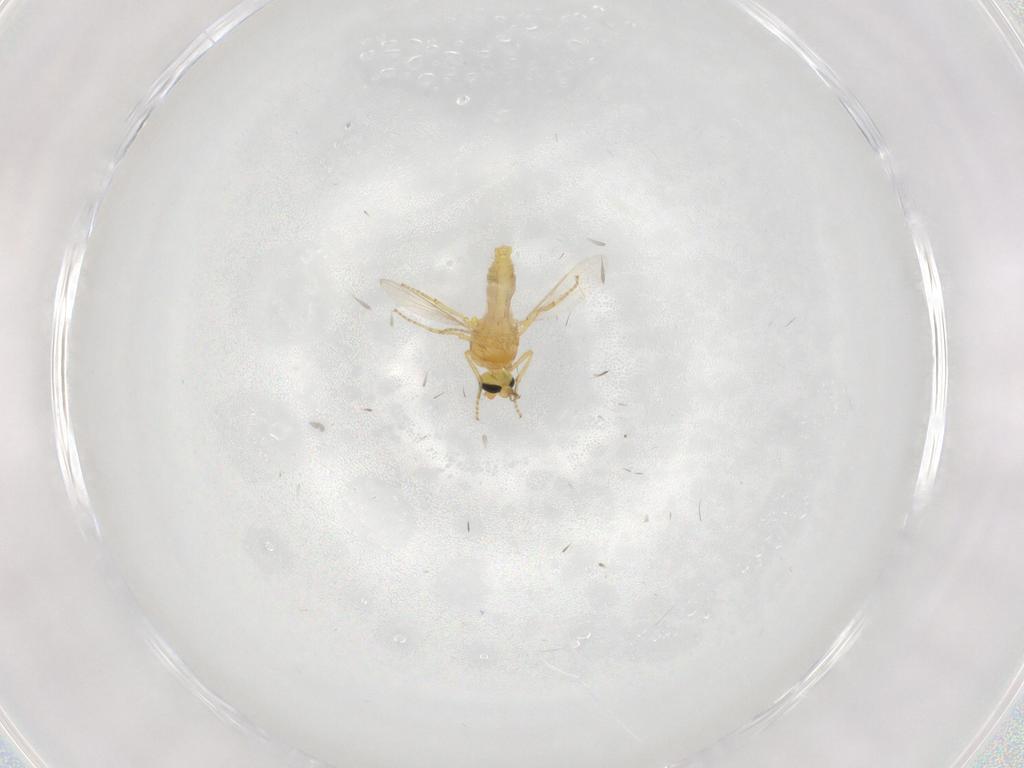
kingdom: Animalia
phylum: Arthropoda
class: Insecta
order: Diptera
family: Ceratopogonidae
